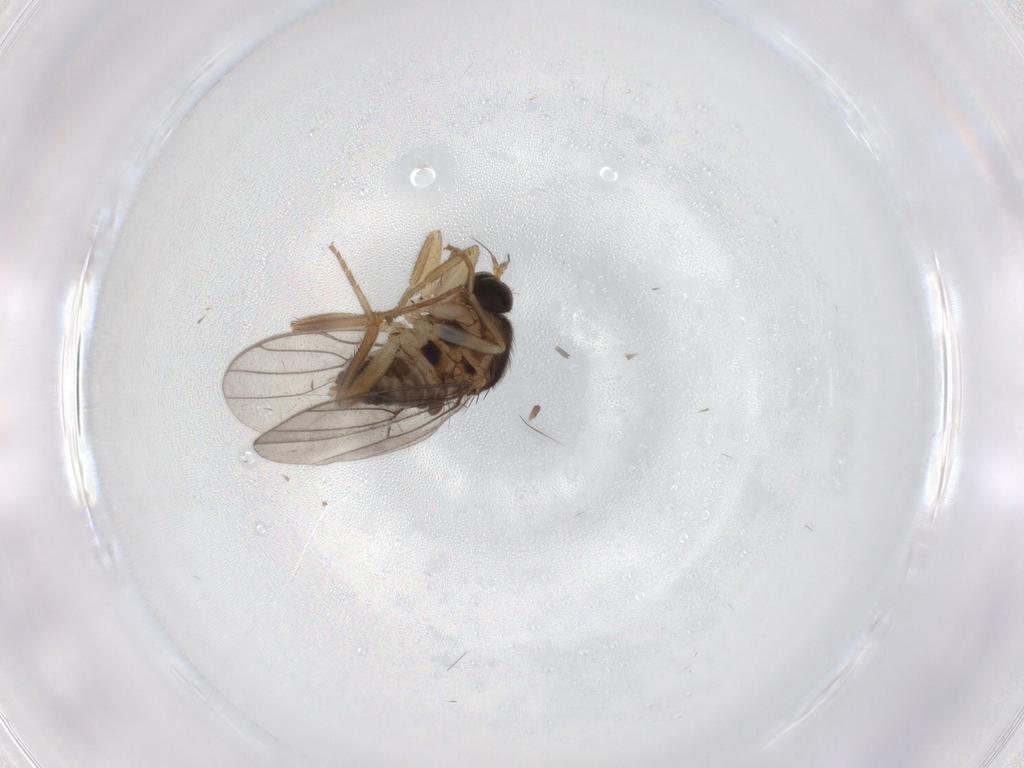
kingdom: Animalia
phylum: Arthropoda
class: Insecta
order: Diptera
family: Hybotidae
